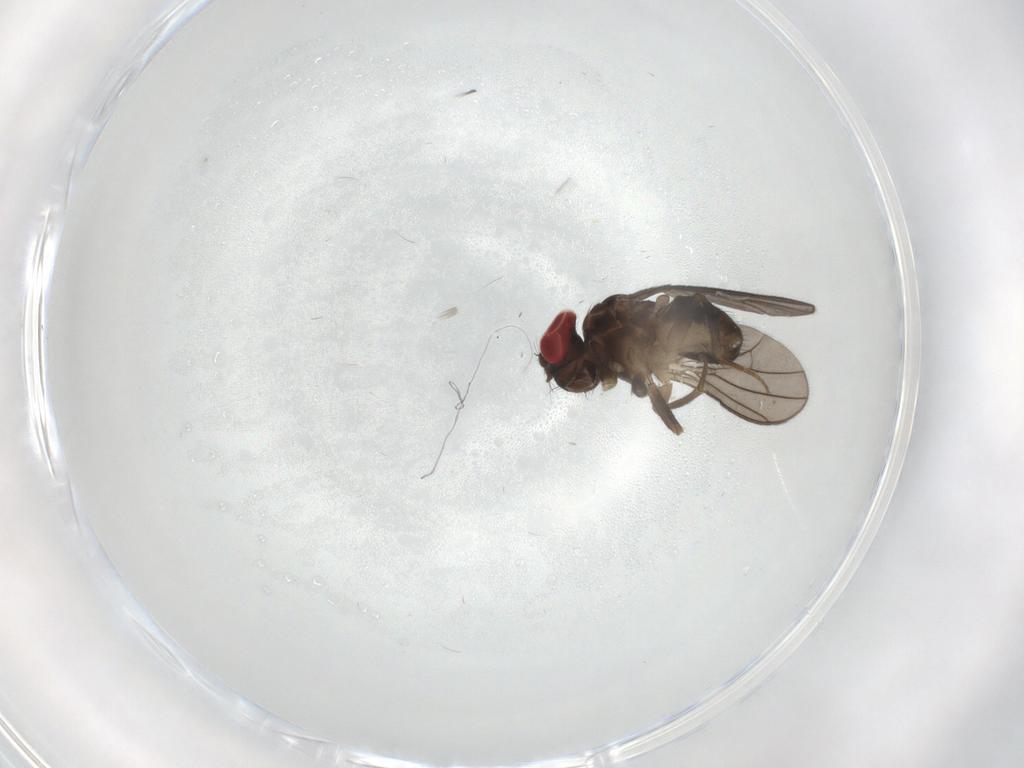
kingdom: Animalia
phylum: Arthropoda
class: Insecta
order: Diptera
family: Drosophilidae
